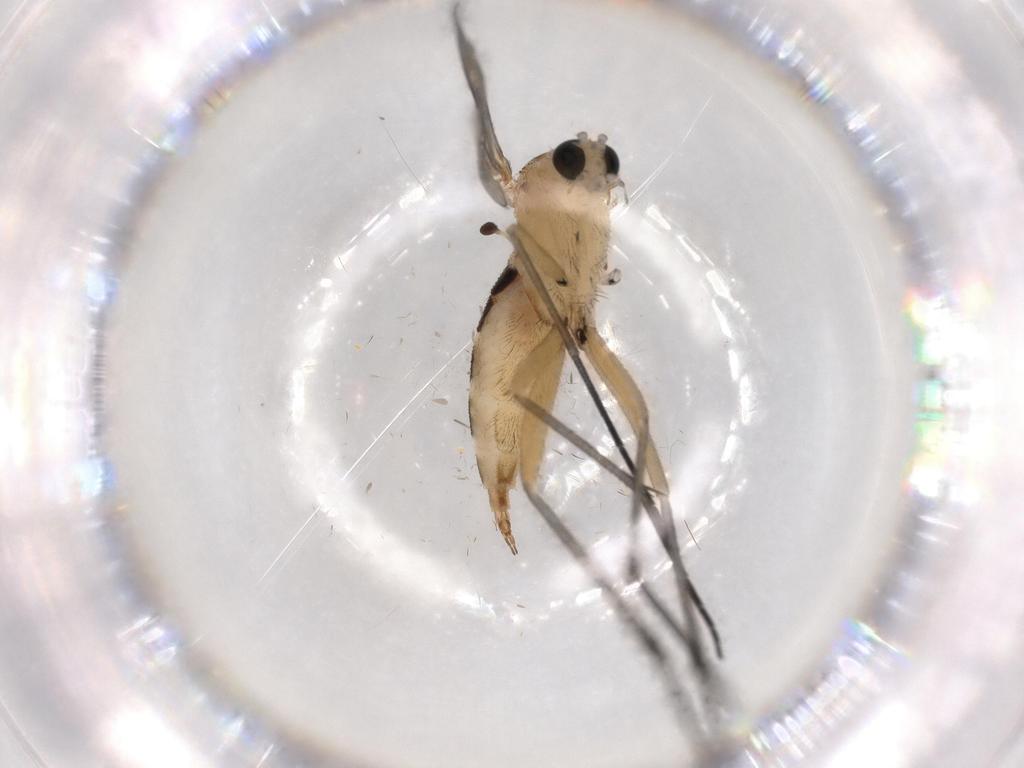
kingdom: Animalia
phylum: Arthropoda
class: Insecta
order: Diptera
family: Sciaridae
